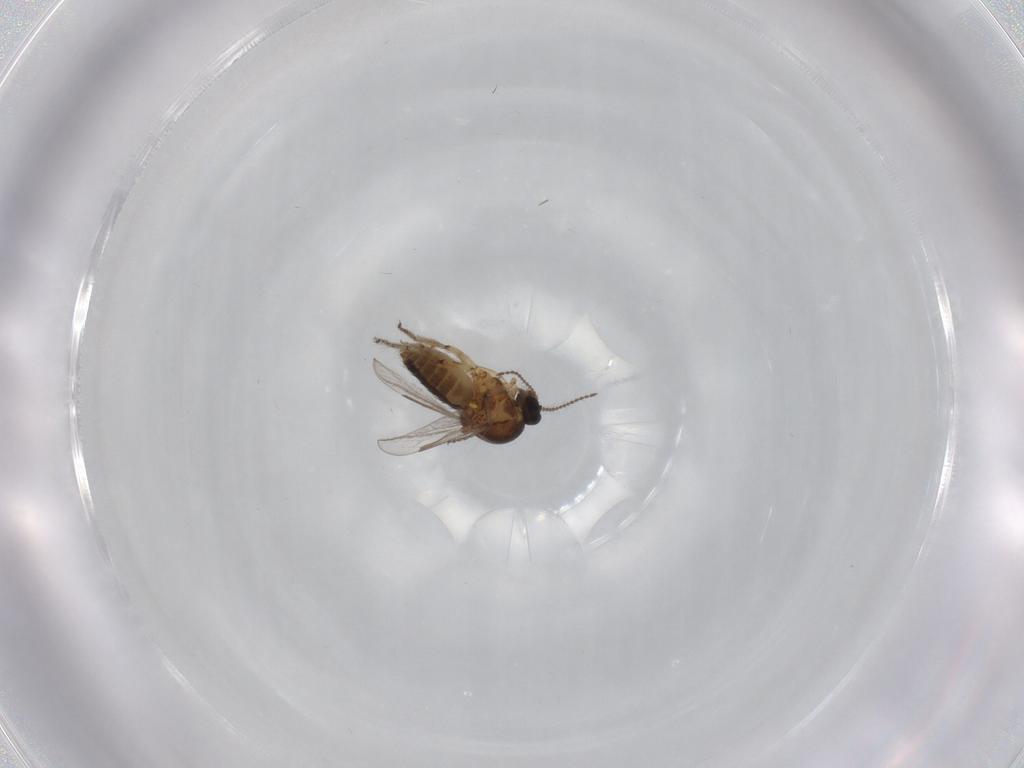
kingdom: Animalia
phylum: Arthropoda
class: Insecta
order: Diptera
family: Ceratopogonidae
